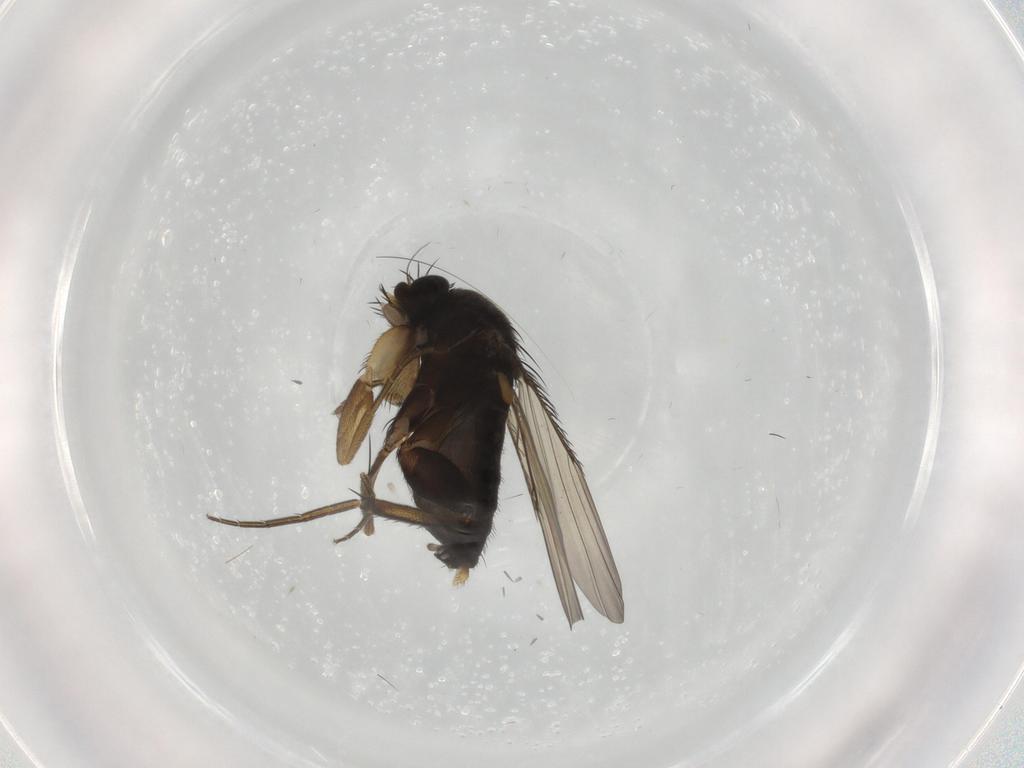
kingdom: Animalia
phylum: Arthropoda
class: Insecta
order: Diptera
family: Phoridae
